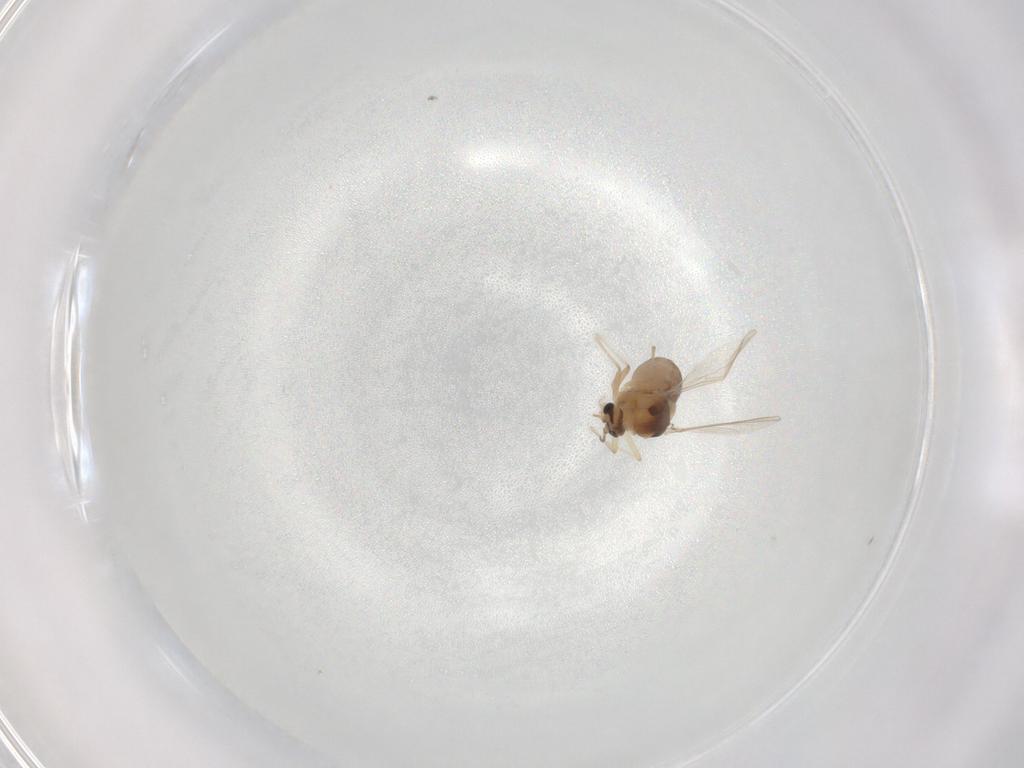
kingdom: Animalia
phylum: Arthropoda
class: Insecta
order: Diptera
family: Chironomidae
